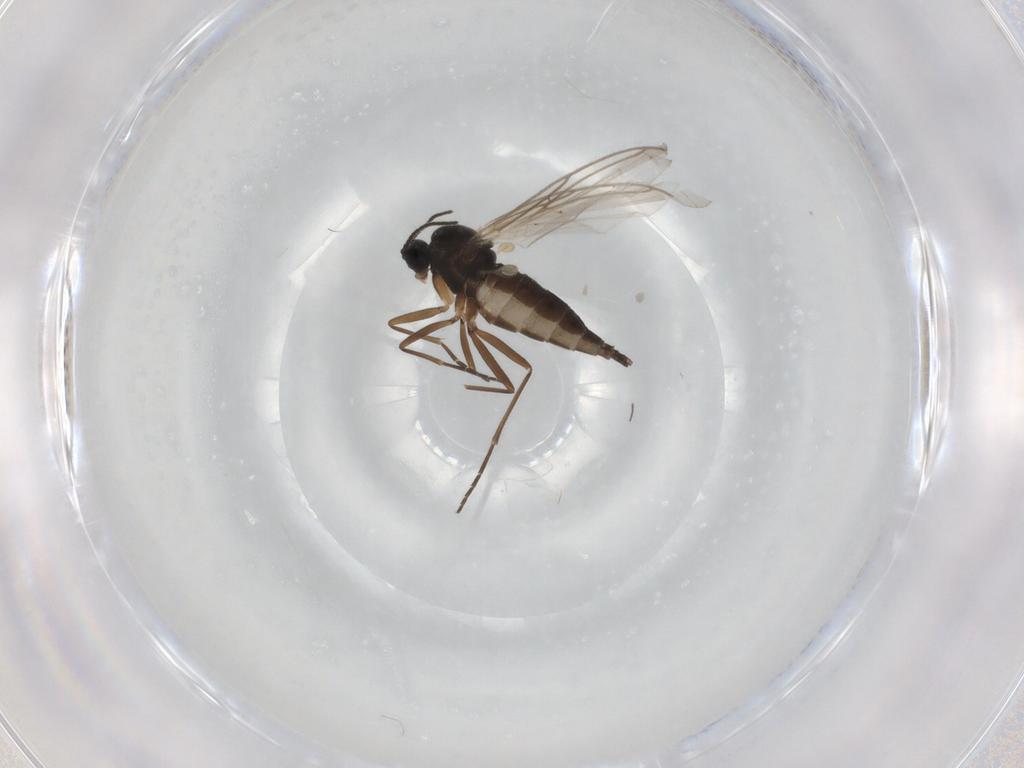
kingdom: Animalia
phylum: Arthropoda
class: Insecta
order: Diptera
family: Sciaridae
